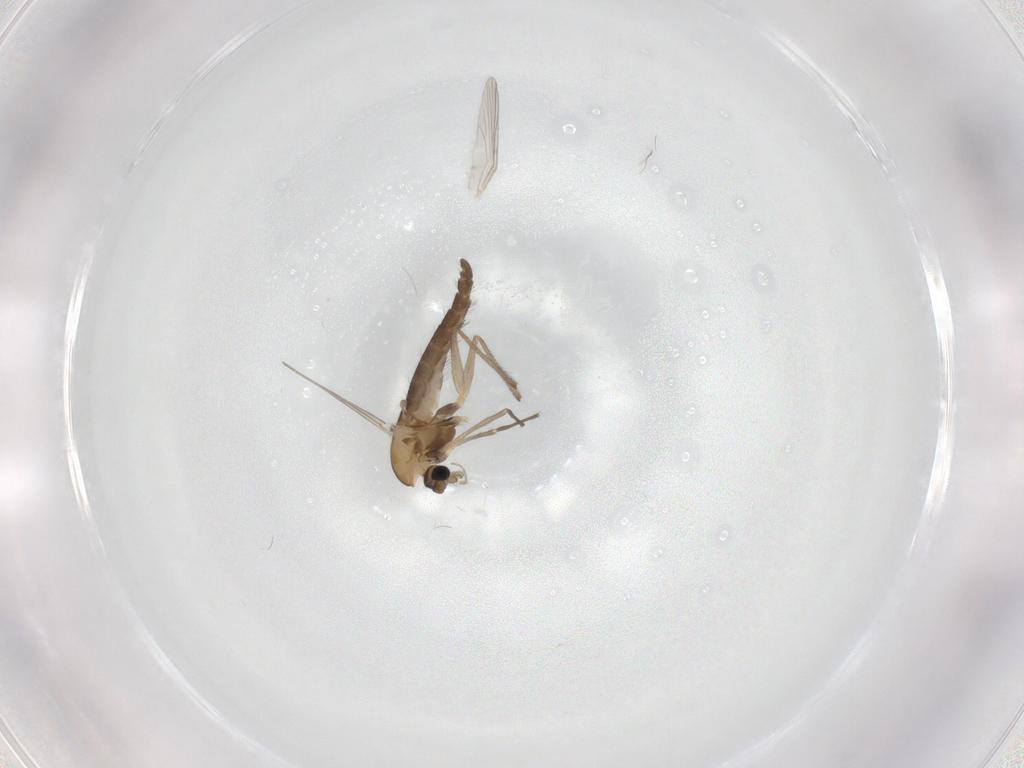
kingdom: Animalia
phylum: Arthropoda
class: Insecta
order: Diptera
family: Chironomidae
